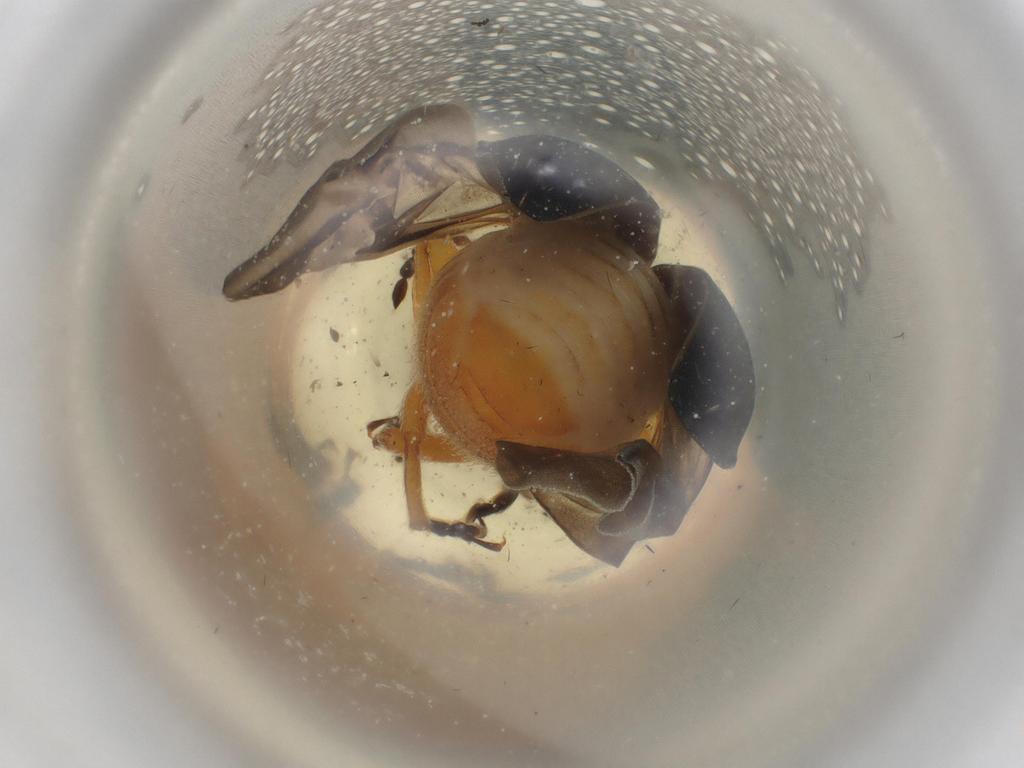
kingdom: Animalia
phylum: Arthropoda
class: Insecta
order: Coleoptera
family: Chrysomelidae
